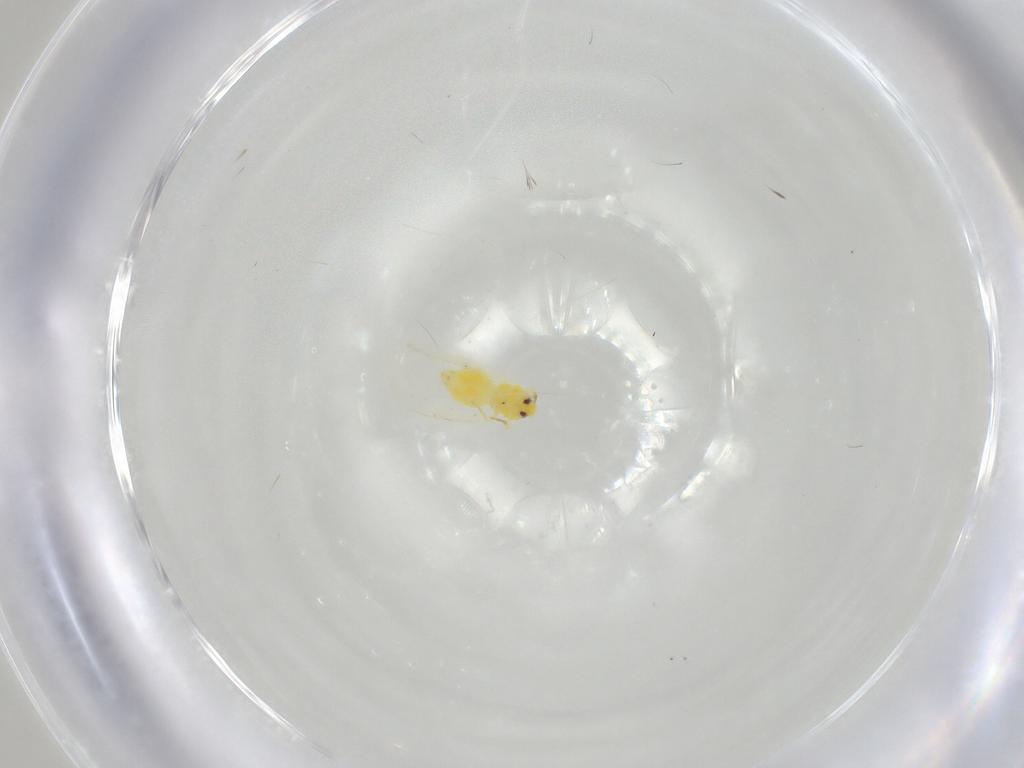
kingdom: Animalia
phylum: Arthropoda
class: Insecta
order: Hemiptera
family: Aleyrodidae
